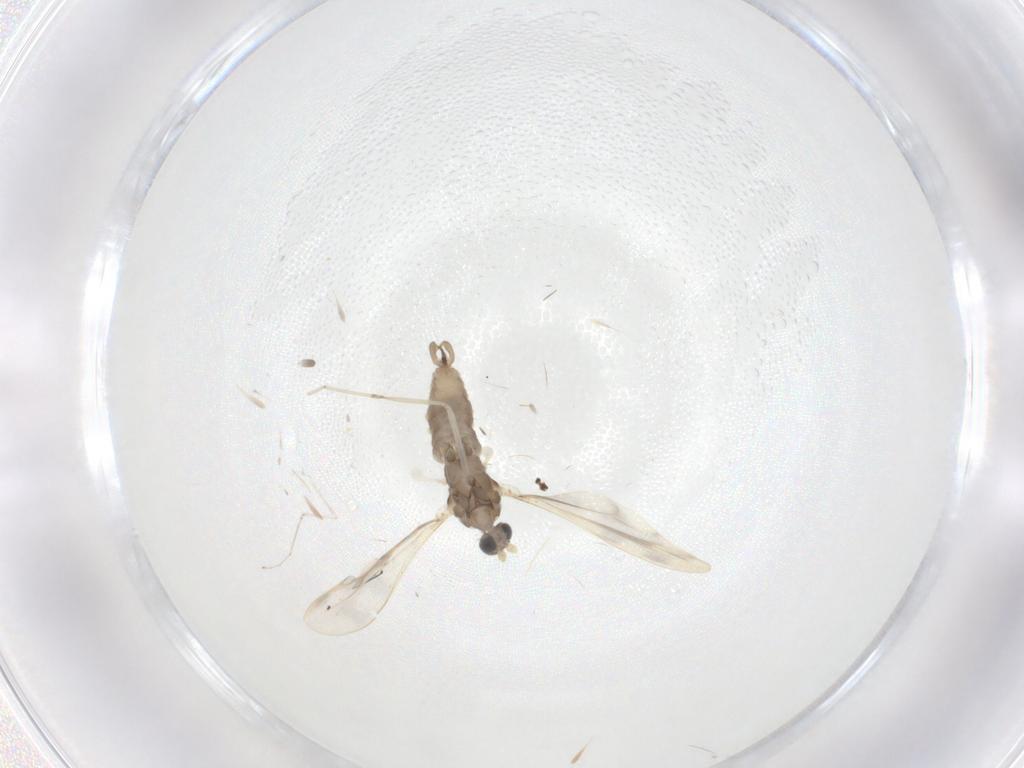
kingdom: Animalia
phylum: Arthropoda
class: Insecta
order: Diptera
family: Cecidomyiidae
